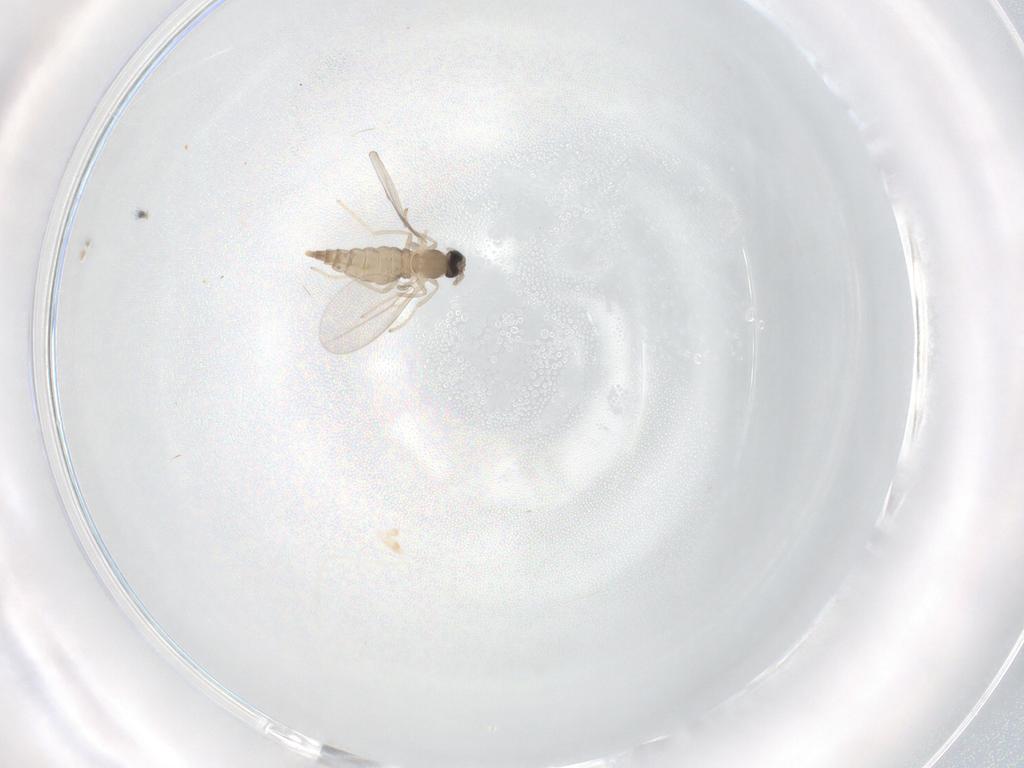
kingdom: Animalia
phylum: Arthropoda
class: Insecta
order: Diptera
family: Cecidomyiidae
